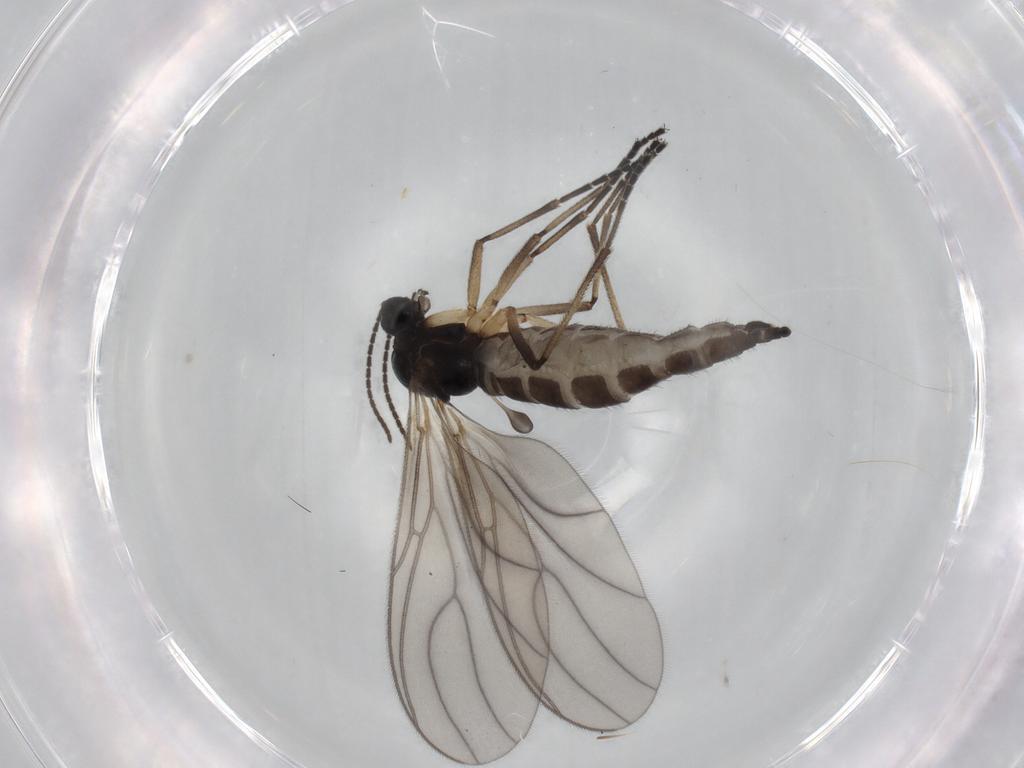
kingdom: Animalia
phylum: Arthropoda
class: Insecta
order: Diptera
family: Sciaridae
